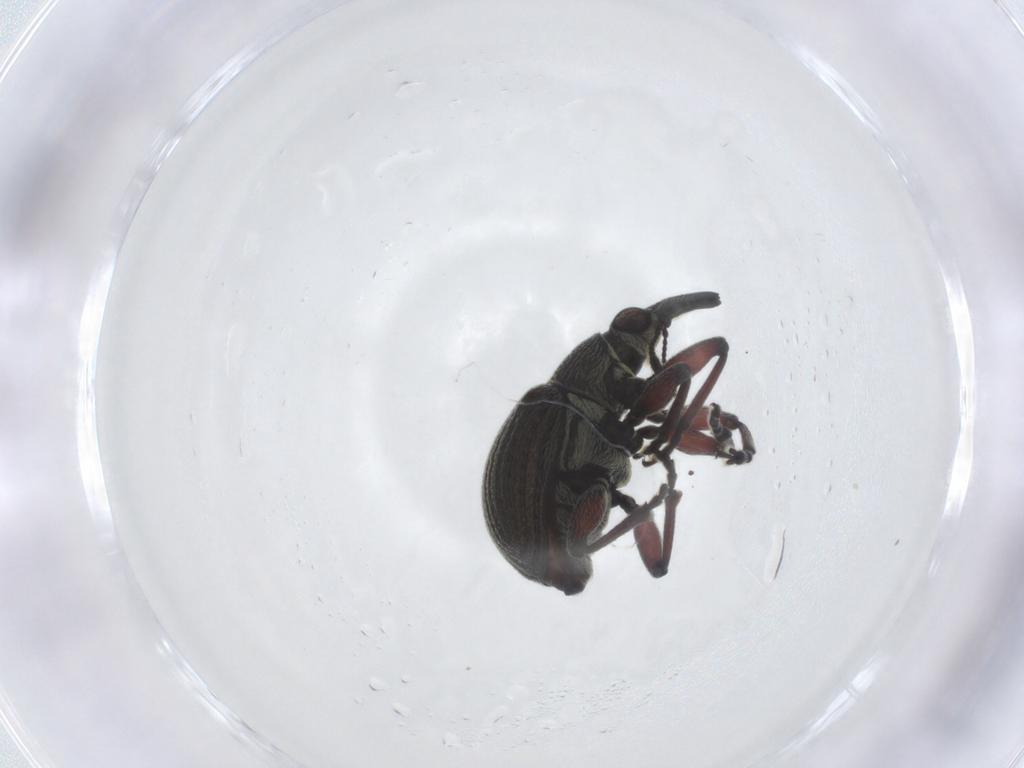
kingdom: Animalia
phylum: Arthropoda
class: Insecta
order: Coleoptera
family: Brentidae
